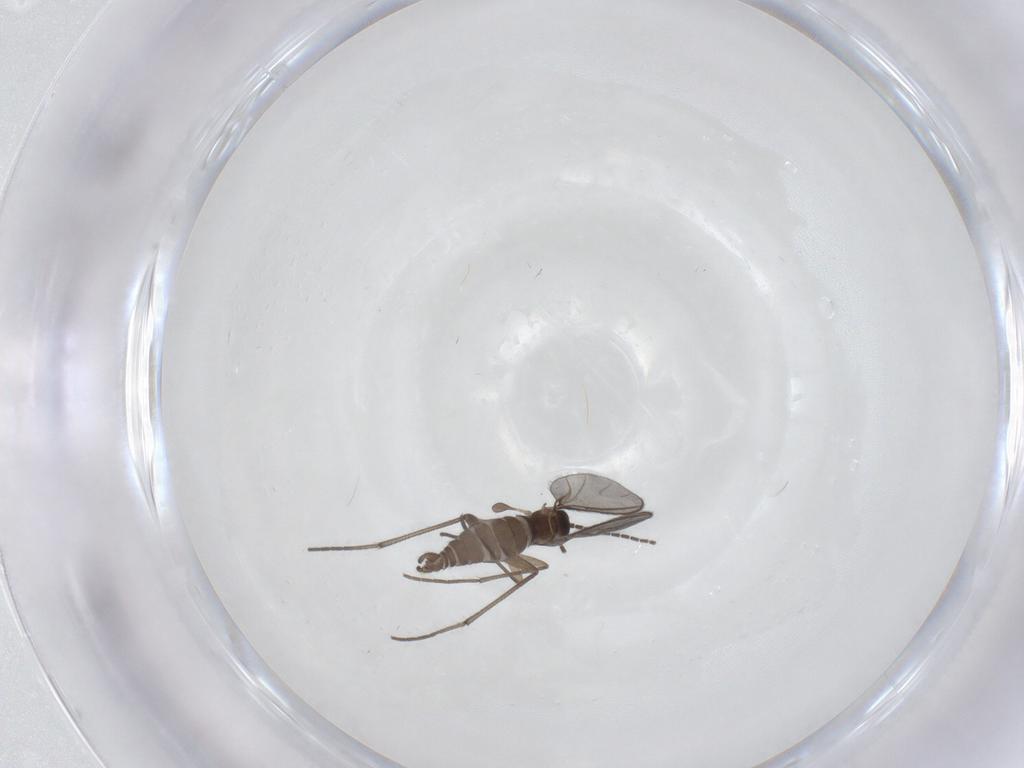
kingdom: Animalia
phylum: Arthropoda
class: Insecta
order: Diptera
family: Sciaridae
